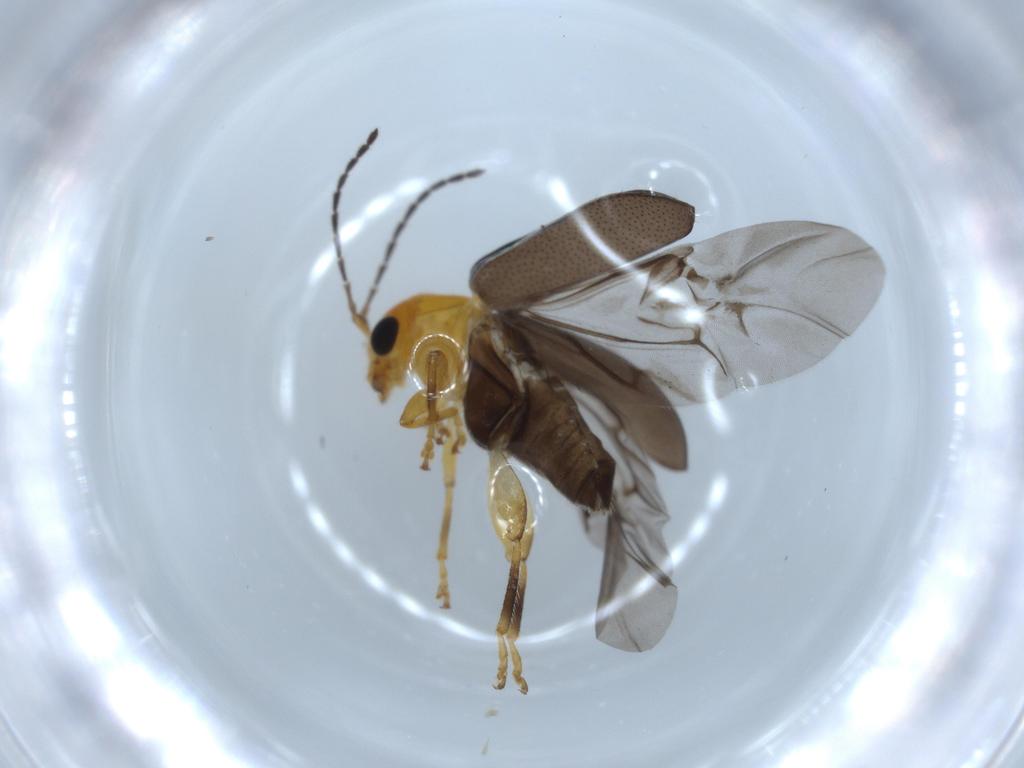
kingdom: Animalia
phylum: Arthropoda
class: Insecta
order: Coleoptera
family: Chrysomelidae
